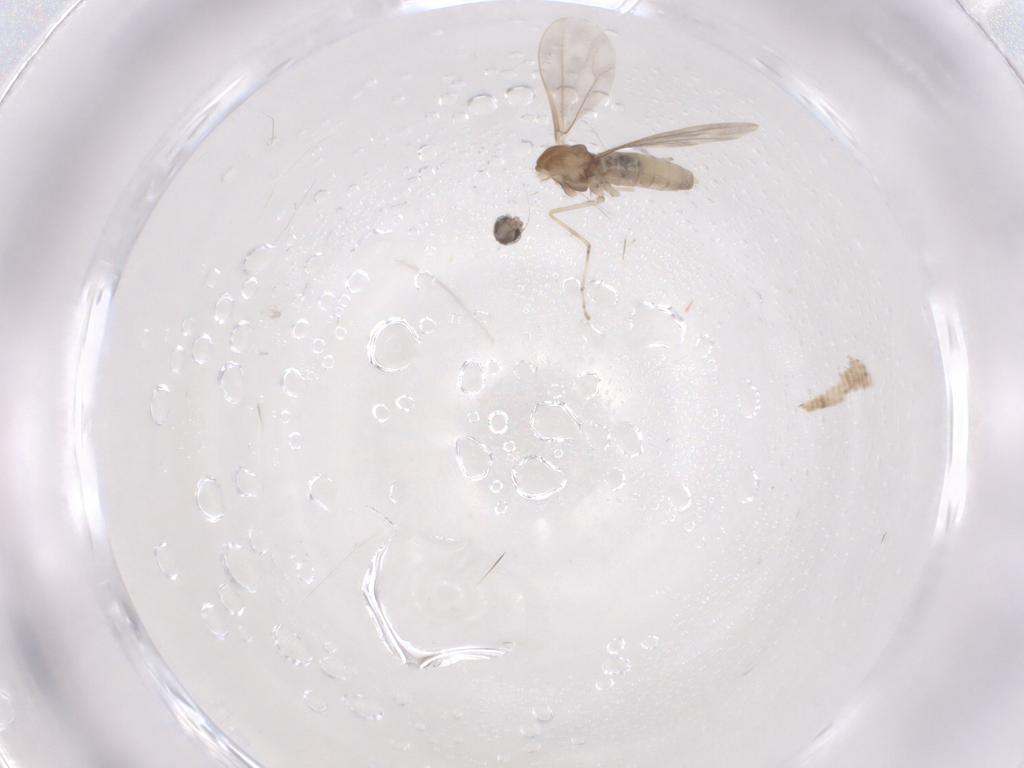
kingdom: Animalia
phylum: Arthropoda
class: Insecta
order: Diptera
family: Cecidomyiidae
